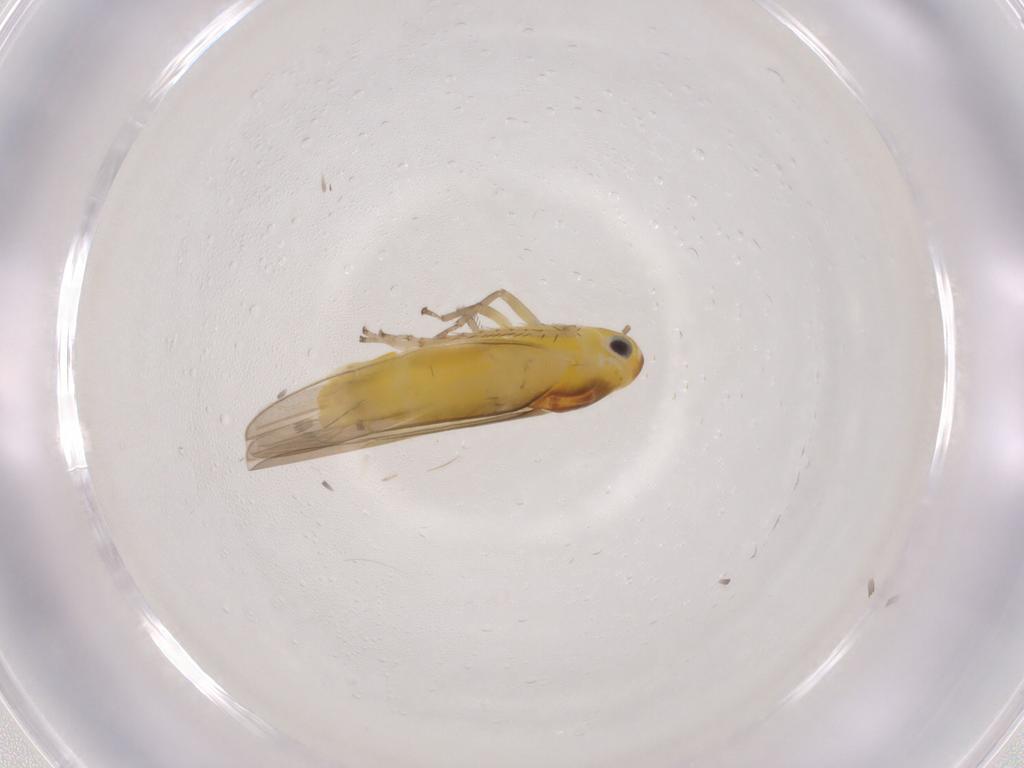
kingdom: Animalia
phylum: Arthropoda
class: Insecta
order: Hemiptera
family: Cicadellidae
